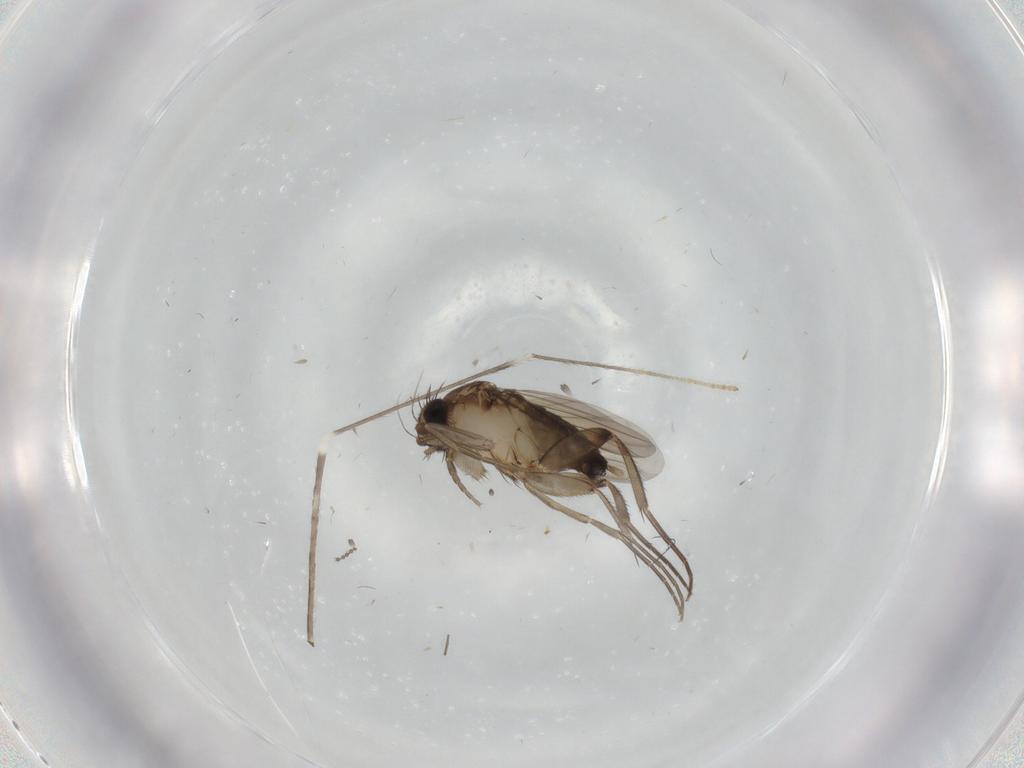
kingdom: Animalia
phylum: Arthropoda
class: Insecta
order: Diptera
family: Phoridae
